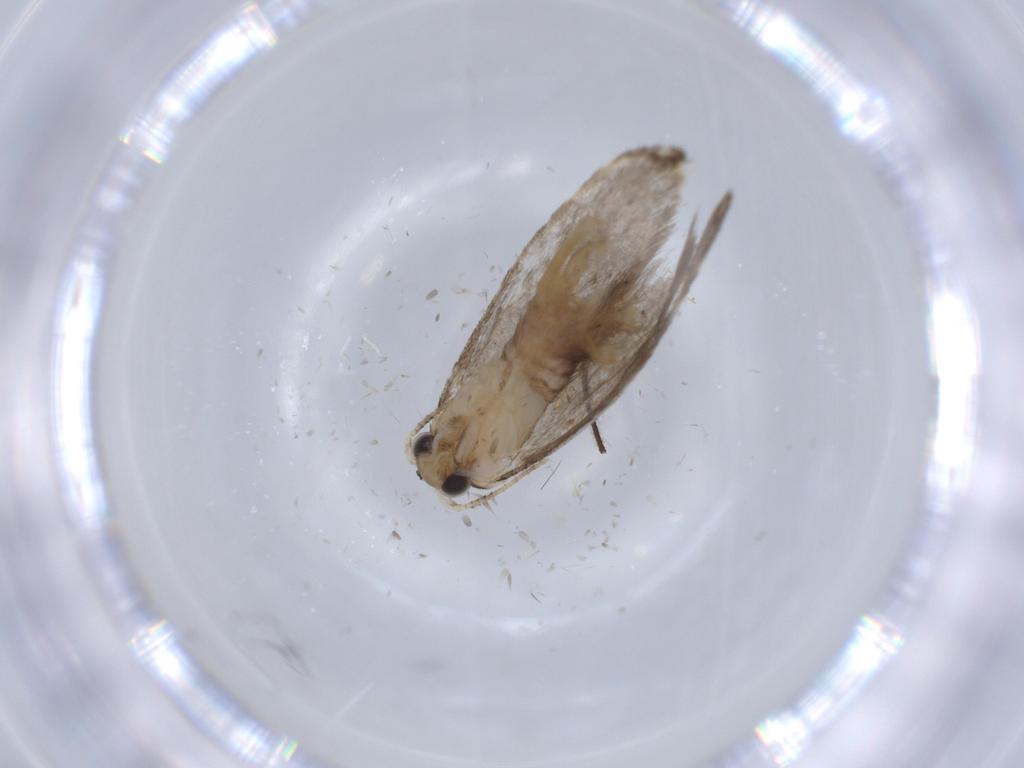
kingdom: Animalia
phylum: Arthropoda
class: Insecta
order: Lepidoptera
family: Tineidae
